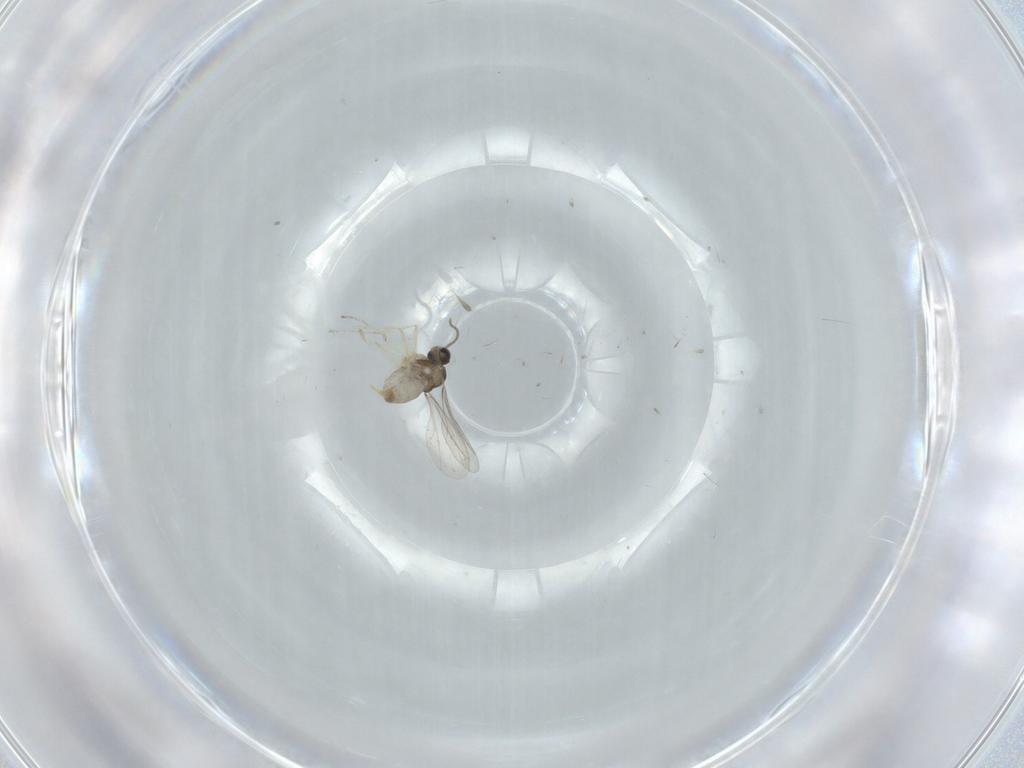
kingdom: Animalia
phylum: Arthropoda
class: Insecta
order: Diptera
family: Cecidomyiidae
